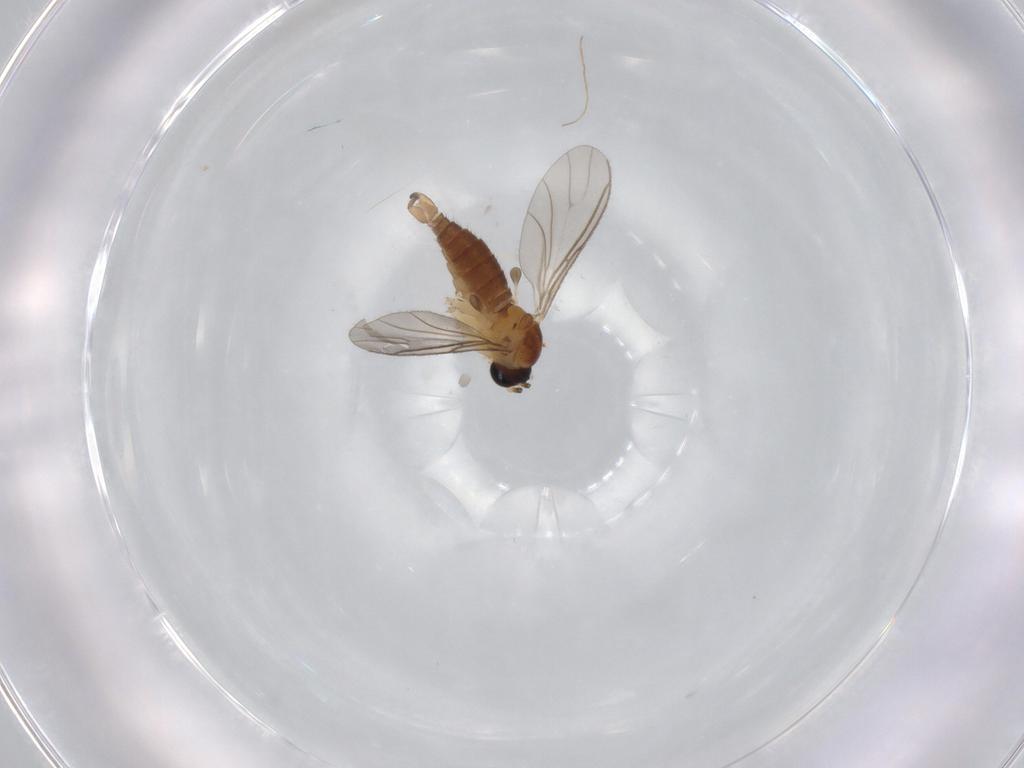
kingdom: Animalia
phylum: Arthropoda
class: Insecta
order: Diptera
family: Sciaridae
